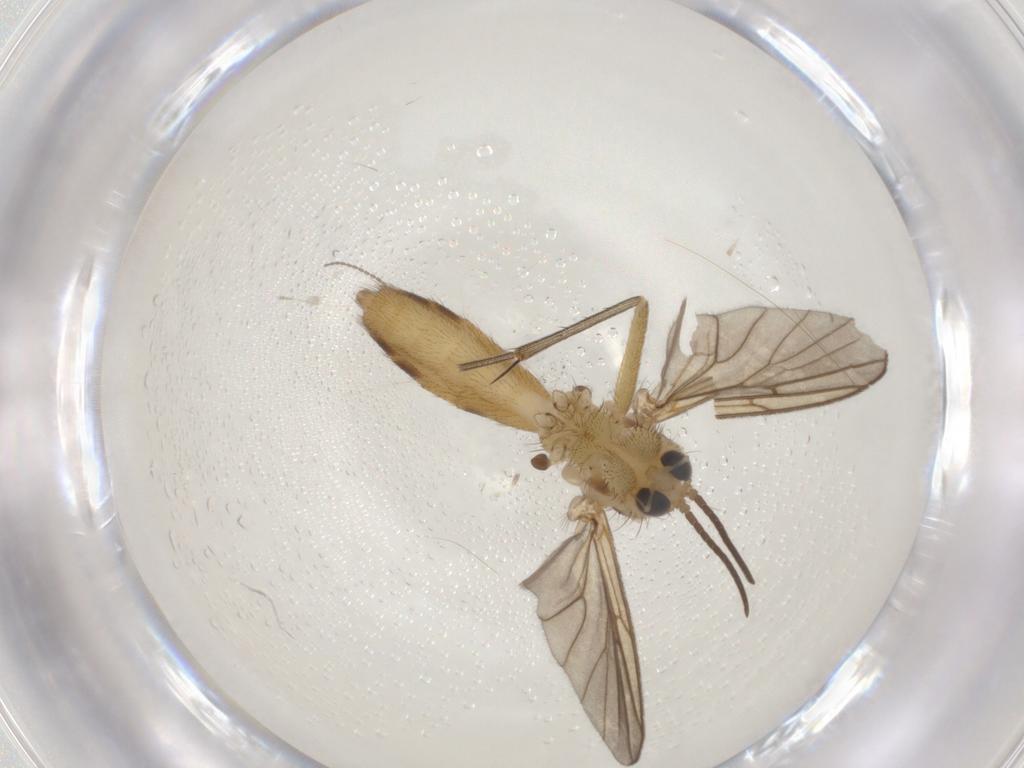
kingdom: Animalia
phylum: Arthropoda
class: Insecta
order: Diptera
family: Mycetophilidae
